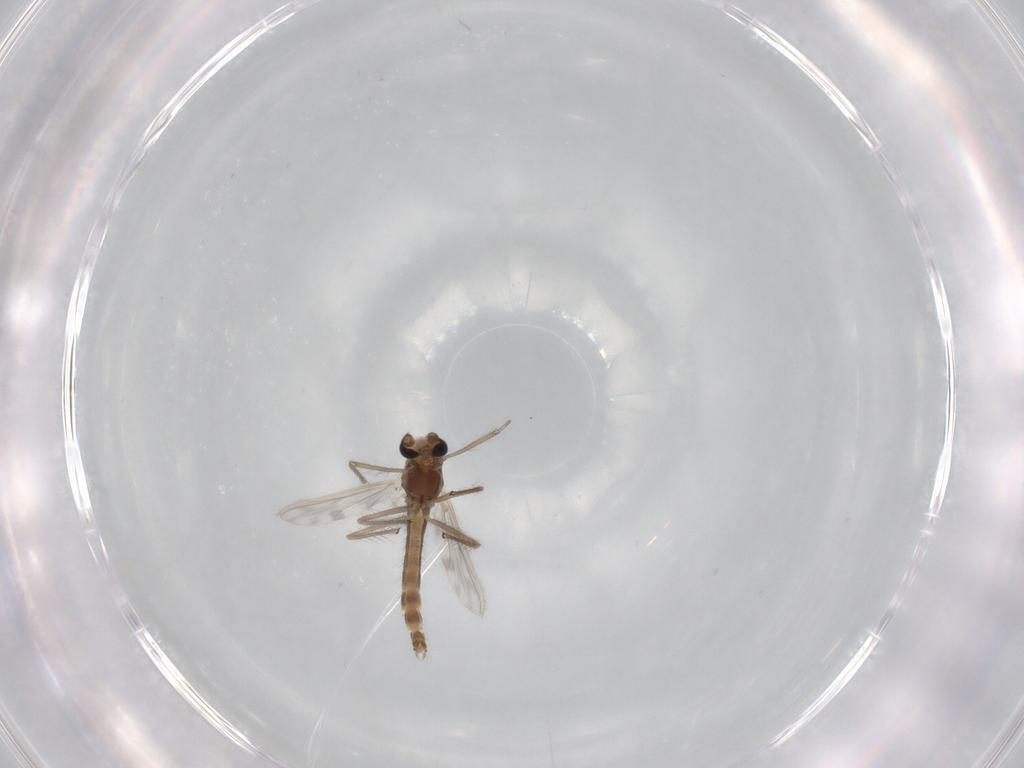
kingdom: Animalia
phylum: Arthropoda
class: Insecta
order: Diptera
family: Chironomidae
